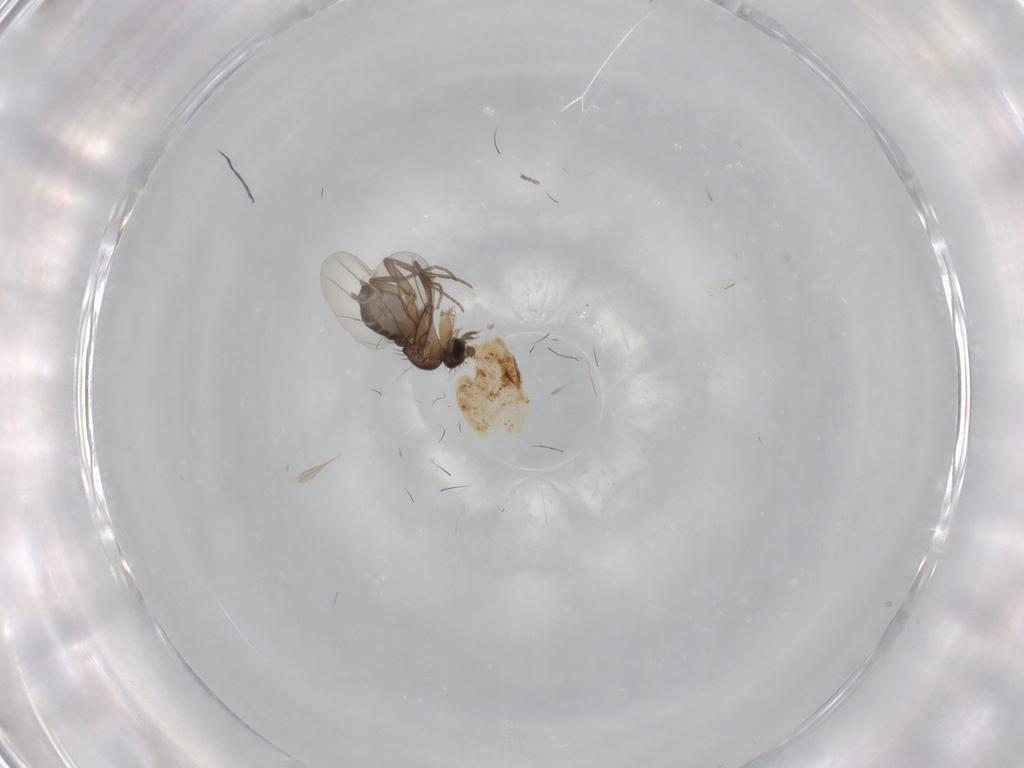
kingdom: Animalia
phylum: Arthropoda
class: Insecta
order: Diptera
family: Sciaridae
